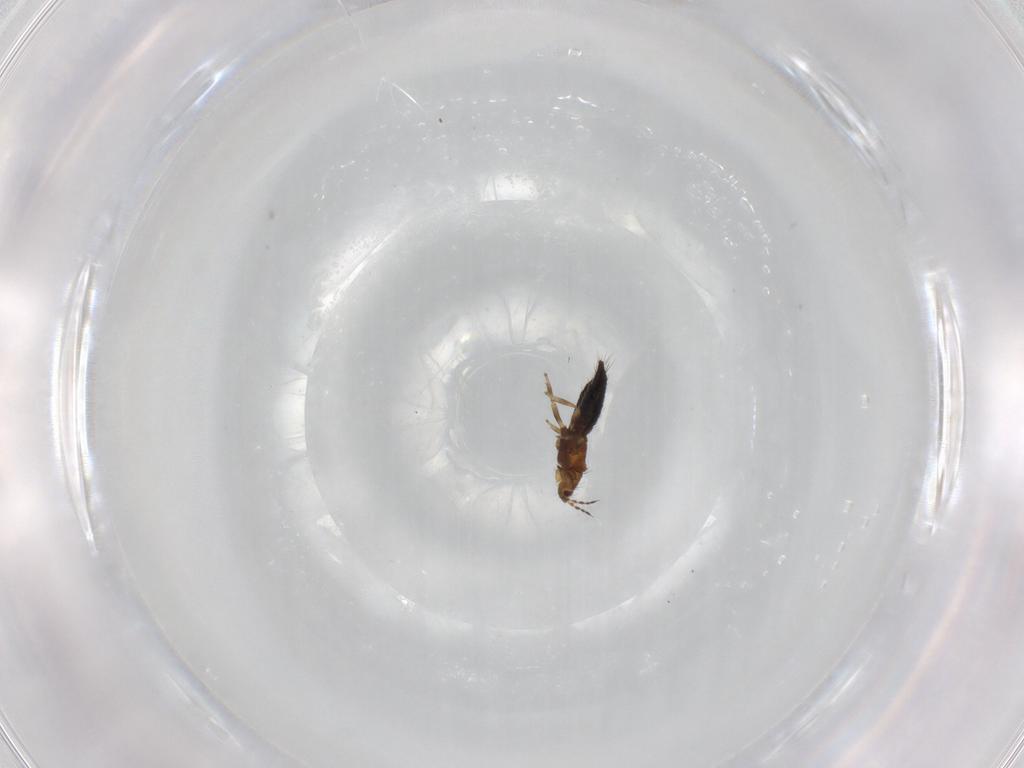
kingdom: Animalia
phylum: Arthropoda
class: Insecta
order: Thysanoptera
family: Thripidae
